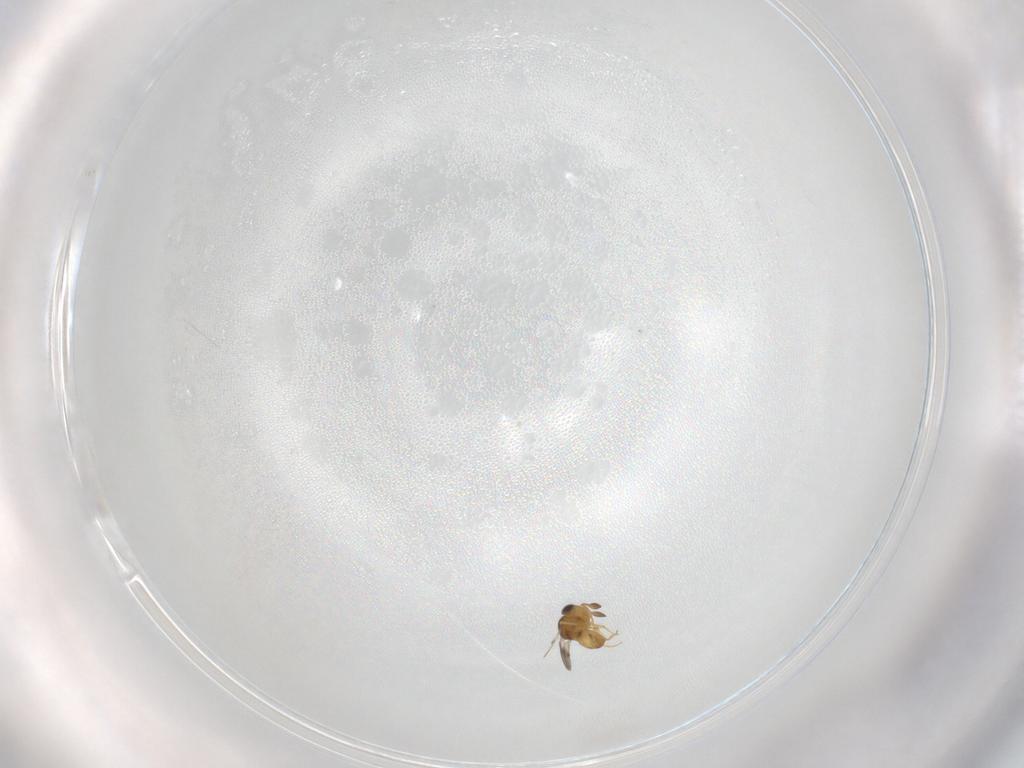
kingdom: Animalia
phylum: Arthropoda
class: Insecta
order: Hymenoptera
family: Scelionidae
